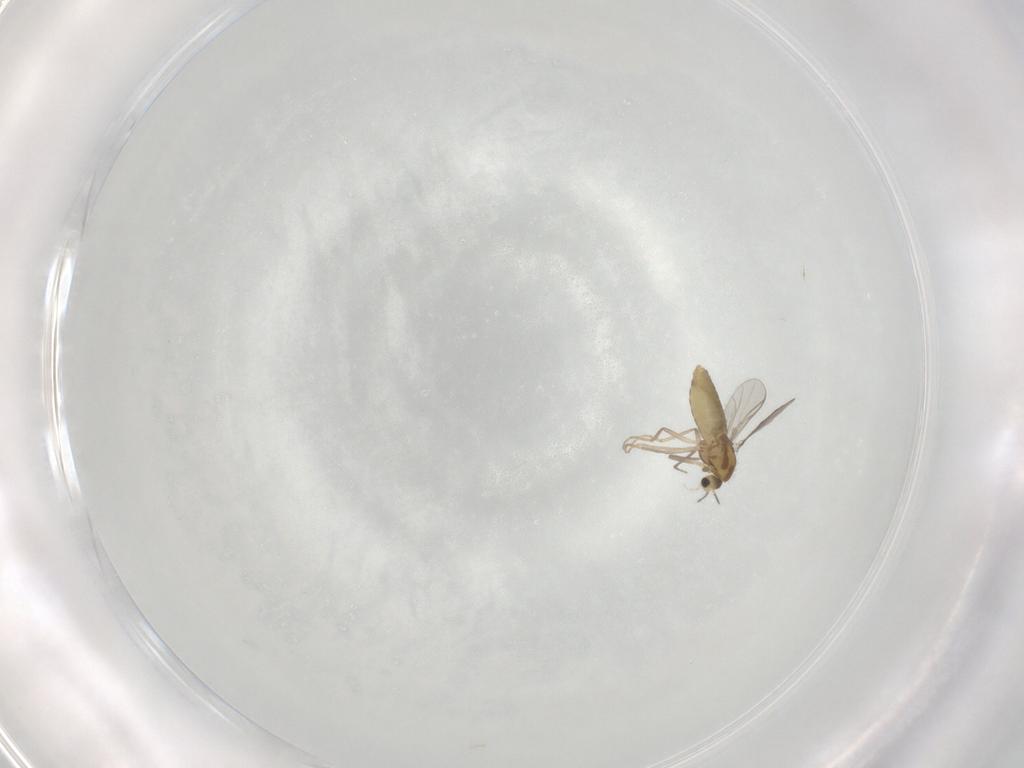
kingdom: Animalia
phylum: Arthropoda
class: Insecta
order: Diptera
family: Chironomidae
